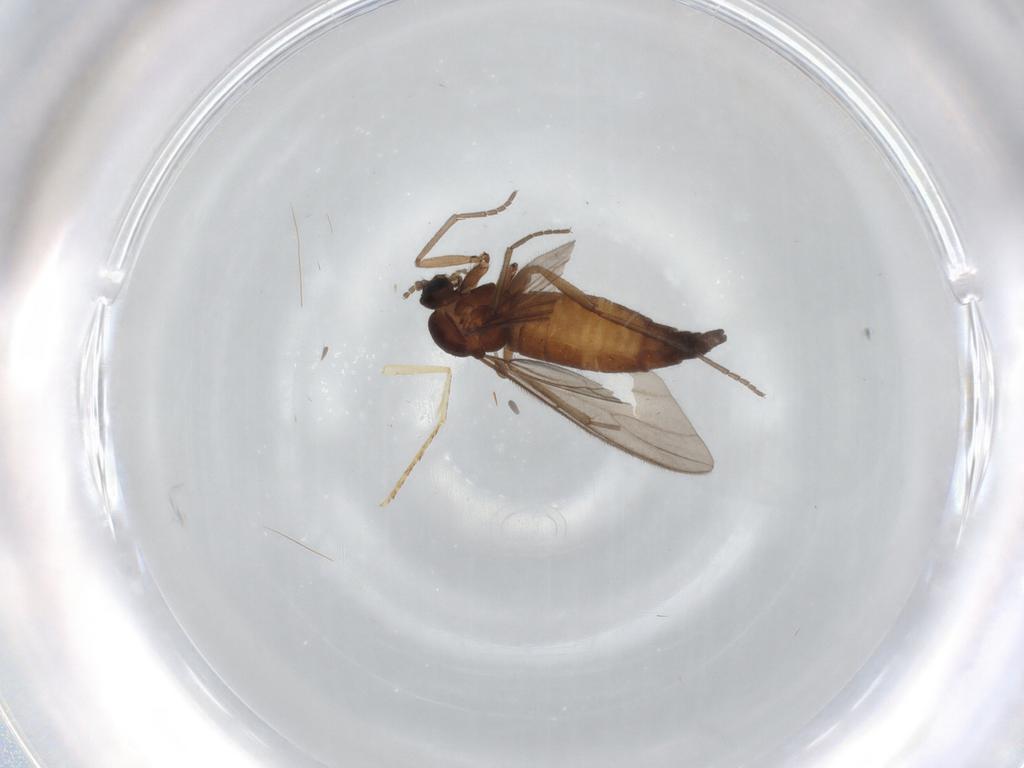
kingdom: Animalia
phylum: Arthropoda
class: Insecta
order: Diptera
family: Sciaridae
